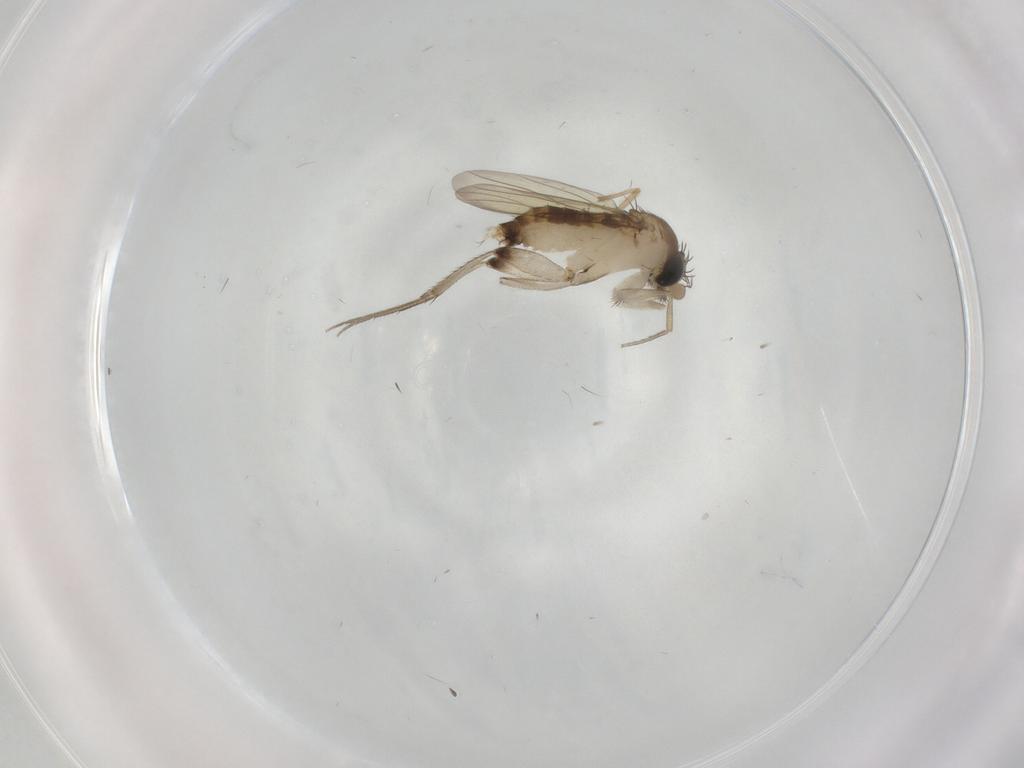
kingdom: Animalia
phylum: Arthropoda
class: Insecta
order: Diptera
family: Chironomidae
